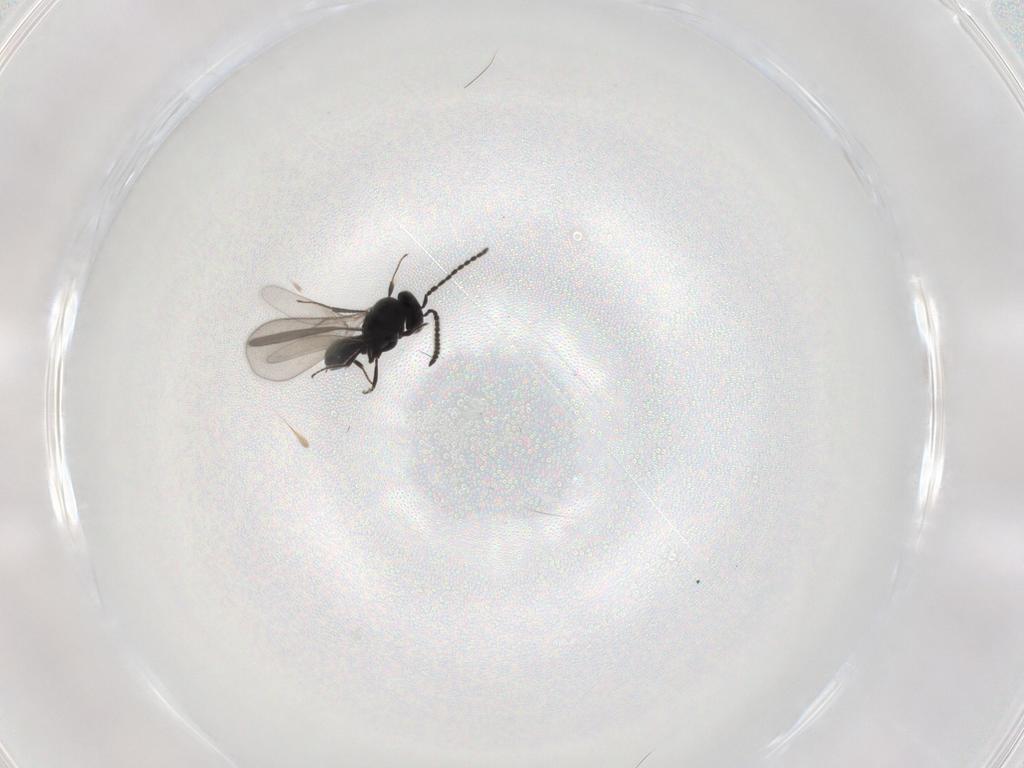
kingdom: Animalia
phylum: Arthropoda
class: Insecta
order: Hymenoptera
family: Scelionidae
